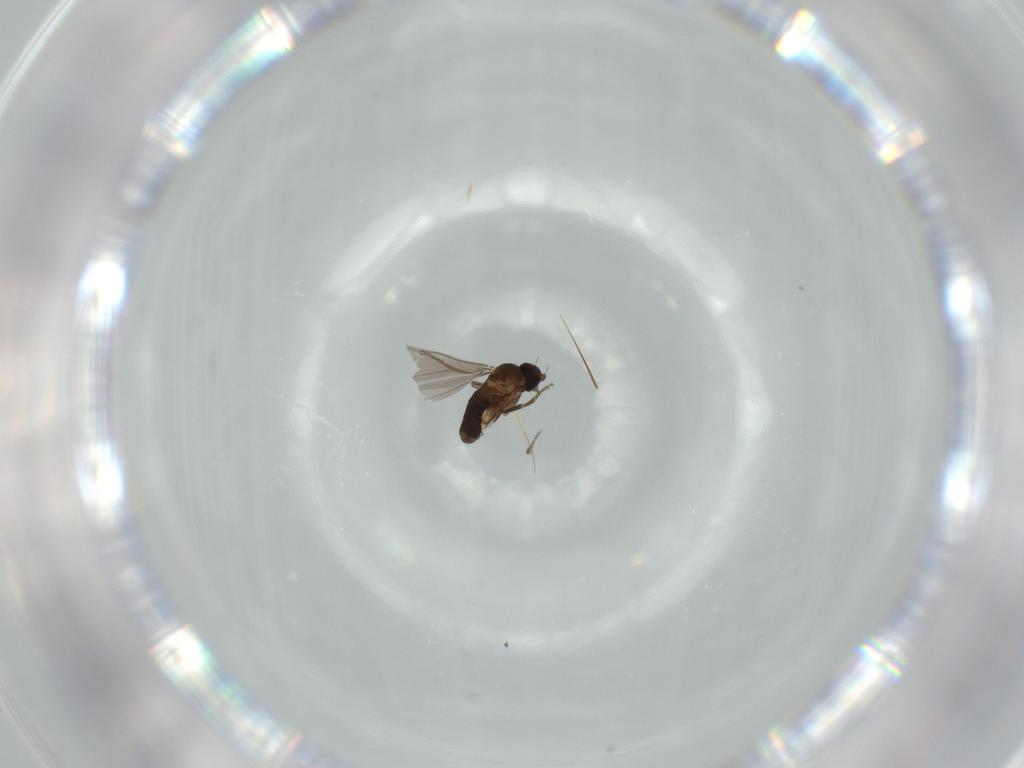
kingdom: Animalia
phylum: Arthropoda
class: Insecta
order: Diptera
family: Phoridae
